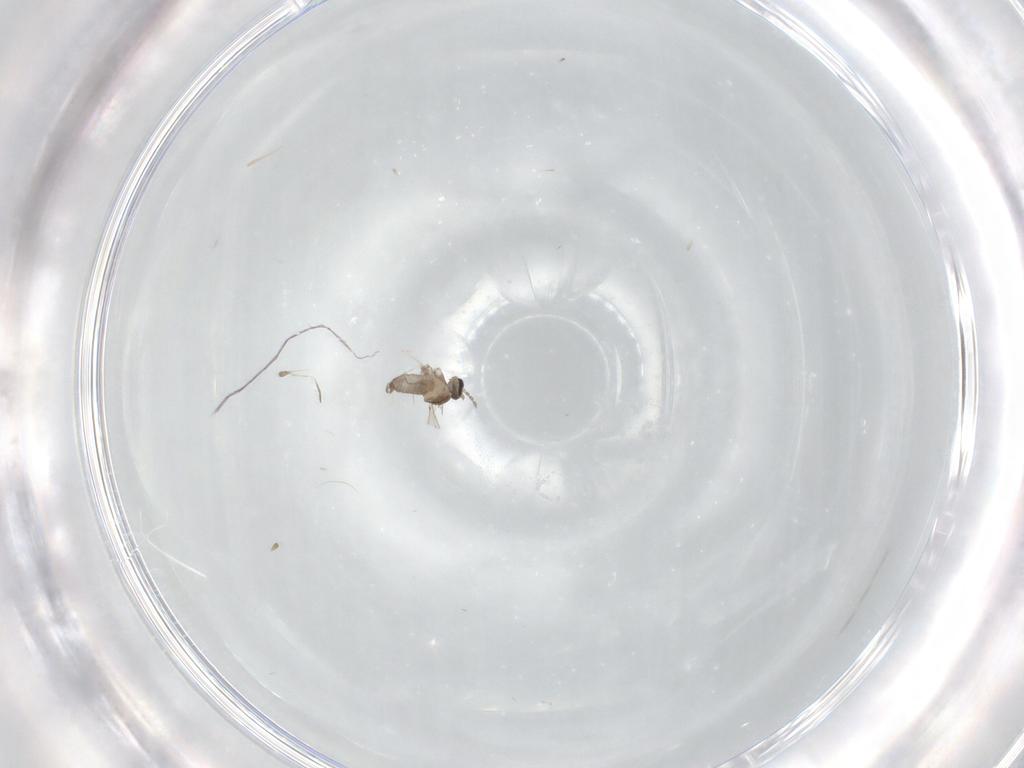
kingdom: Animalia
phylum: Arthropoda
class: Insecta
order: Diptera
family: Cecidomyiidae
